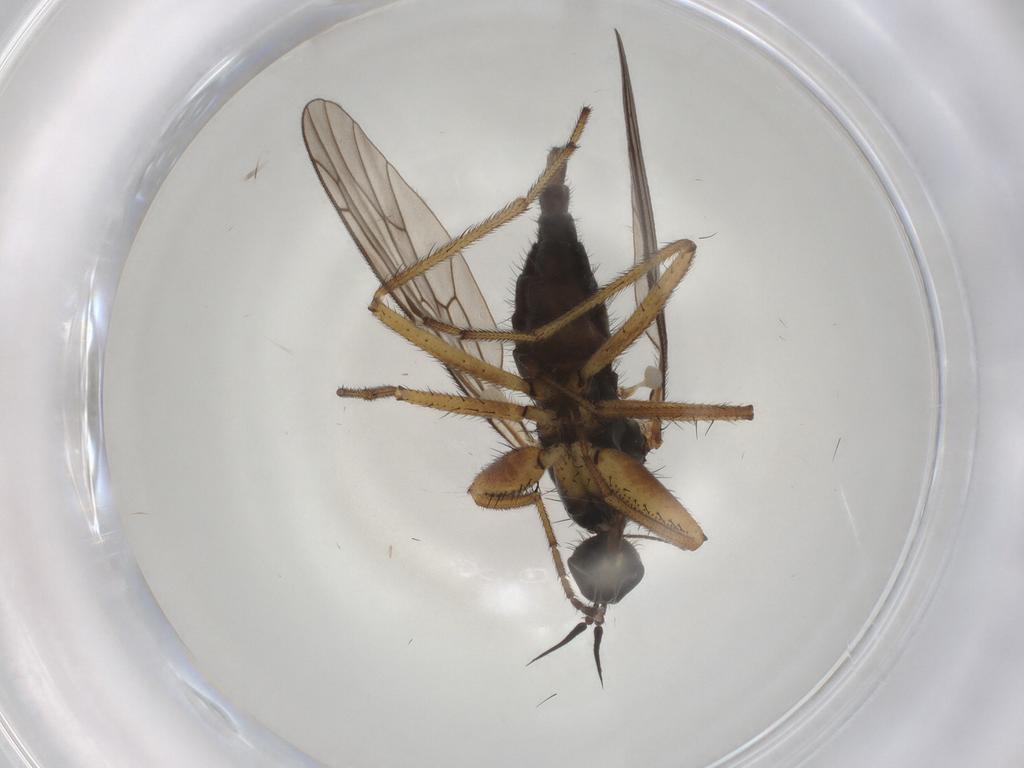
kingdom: Animalia
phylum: Arthropoda
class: Insecta
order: Diptera
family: Empididae
